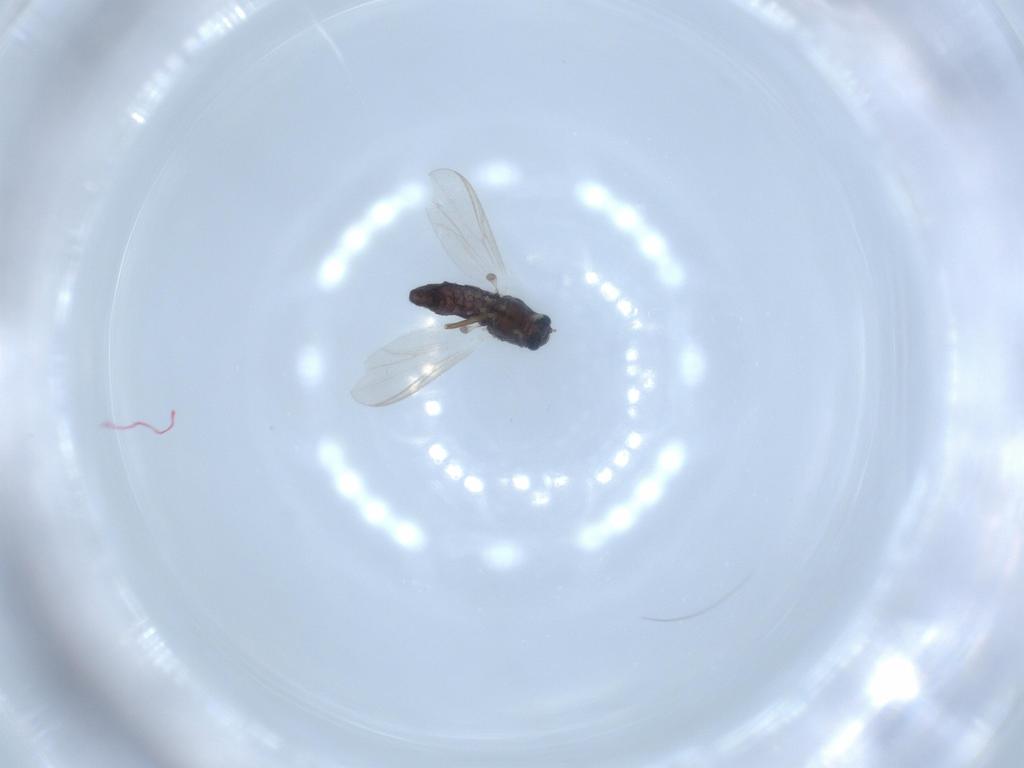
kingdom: Animalia
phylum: Arthropoda
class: Insecta
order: Diptera
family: Chironomidae
